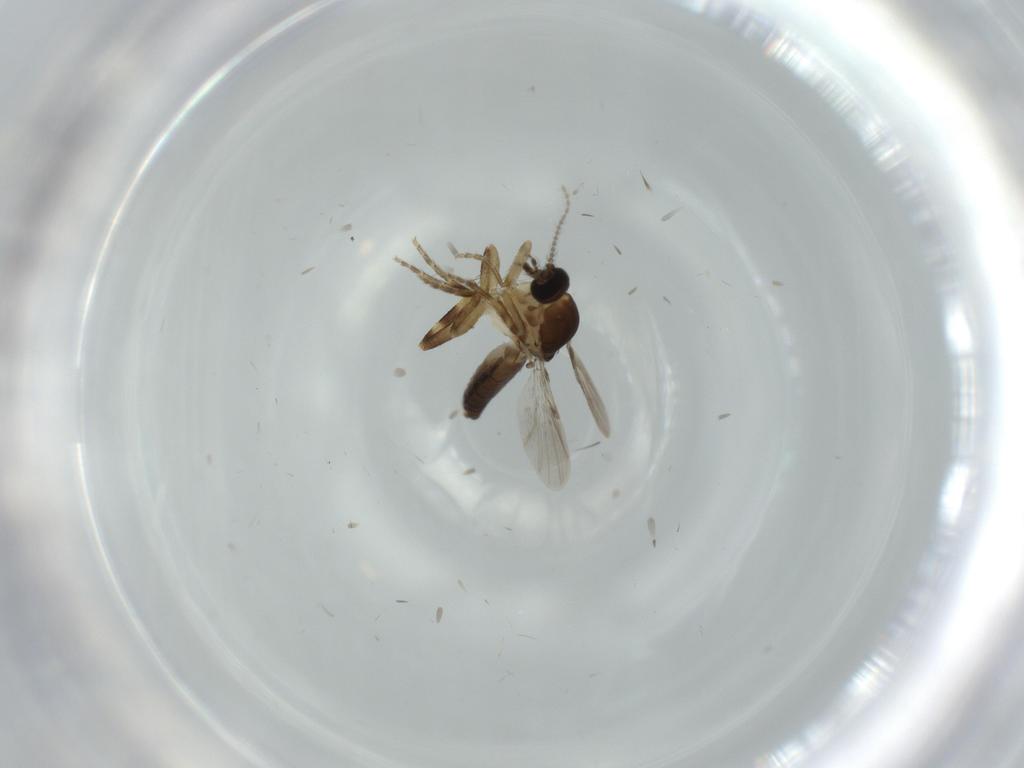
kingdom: Animalia
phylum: Arthropoda
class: Insecta
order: Diptera
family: Ceratopogonidae
